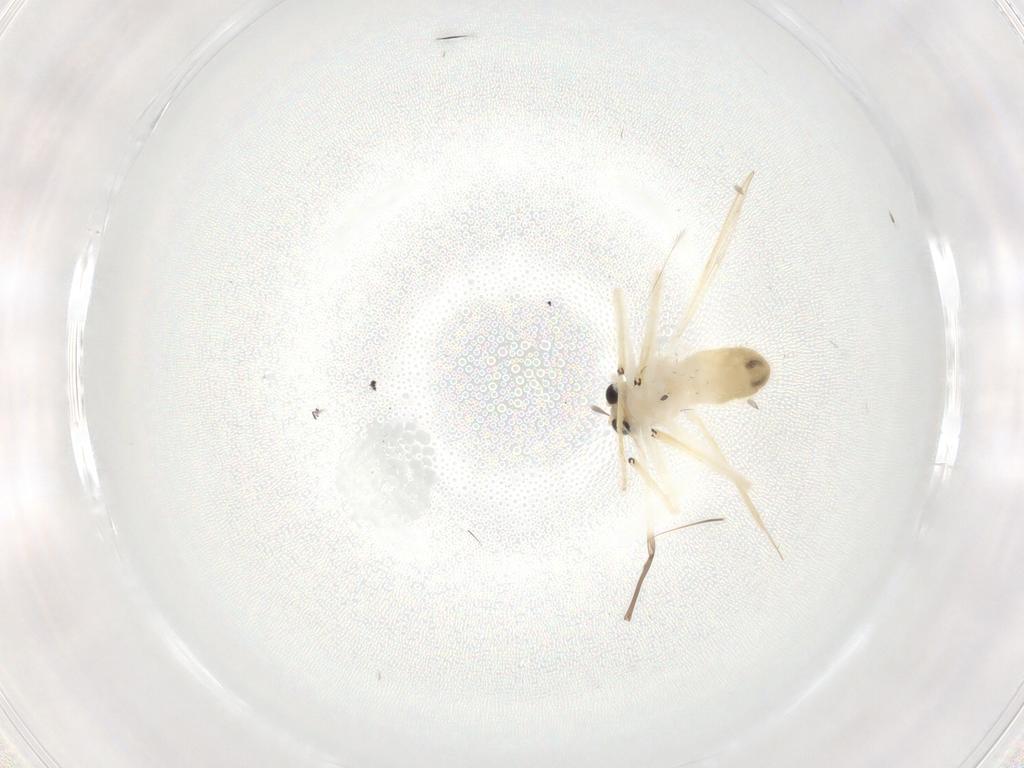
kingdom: Animalia
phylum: Arthropoda
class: Insecta
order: Diptera
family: Chironomidae
